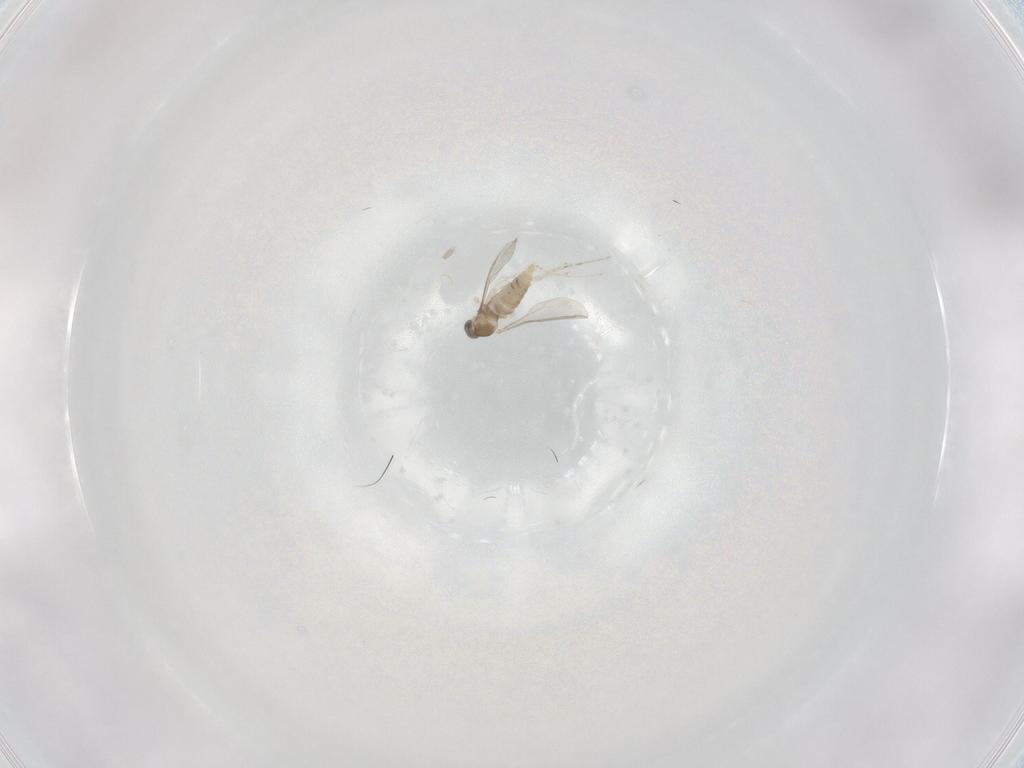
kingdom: Animalia
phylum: Arthropoda
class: Insecta
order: Diptera
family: Cecidomyiidae
